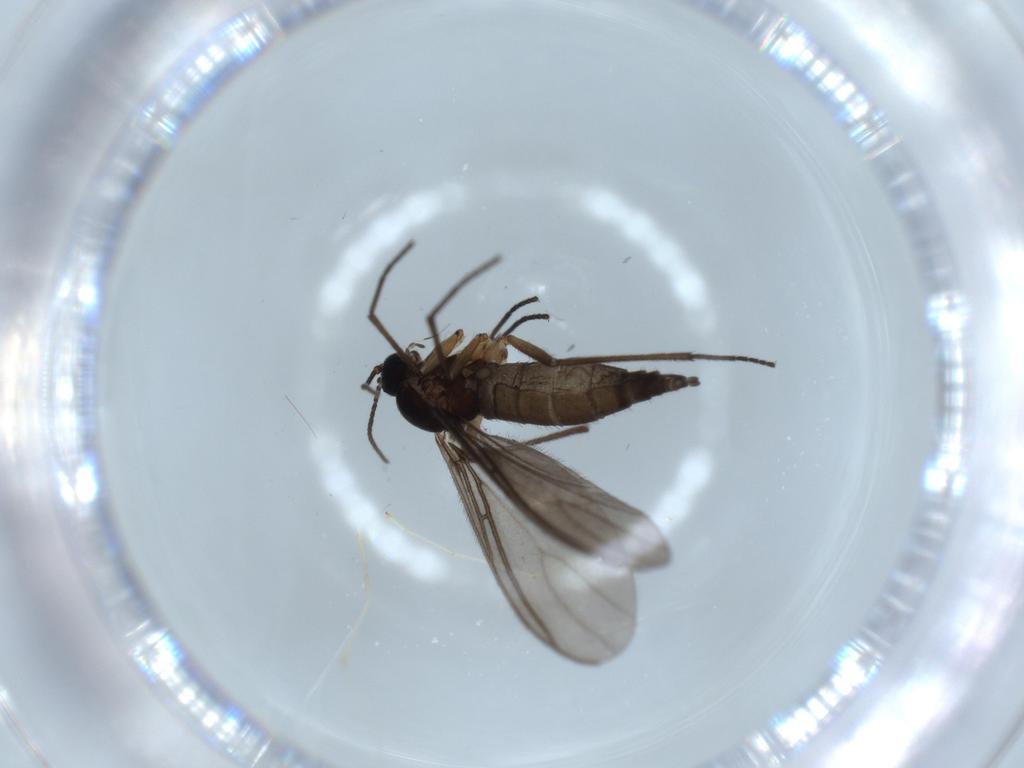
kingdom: Animalia
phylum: Arthropoda
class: Insecta
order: Diptera
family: Sciaridae
